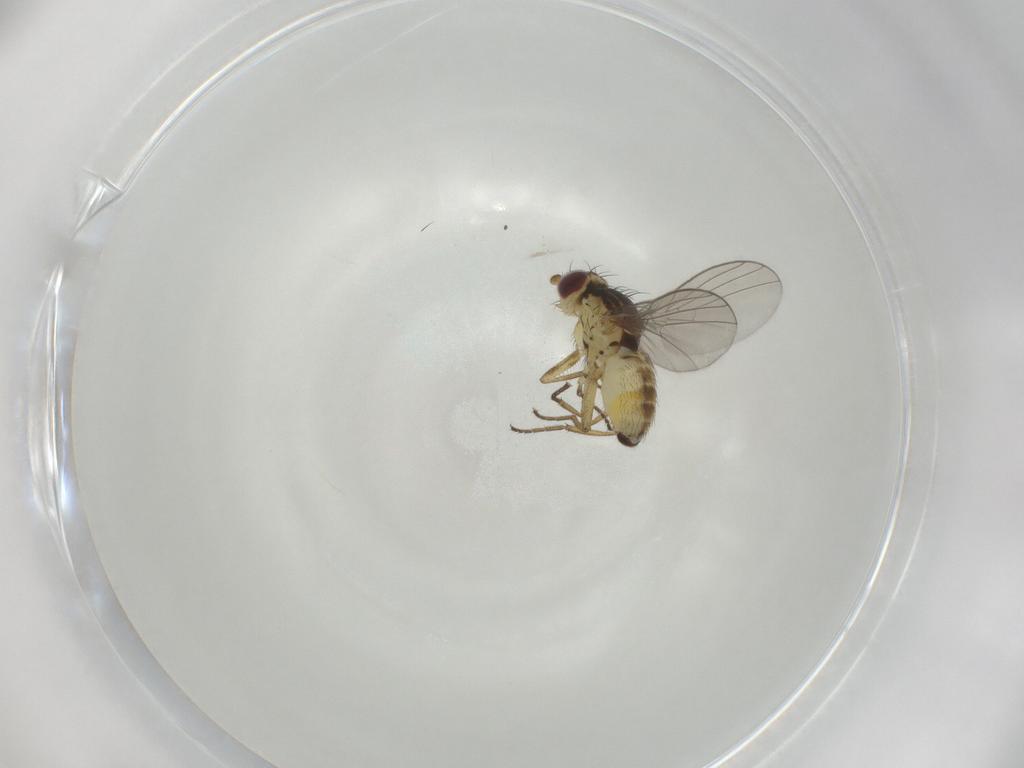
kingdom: Animalia
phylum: Arthropoda
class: Insecta
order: Diptera
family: Agromyzidae
